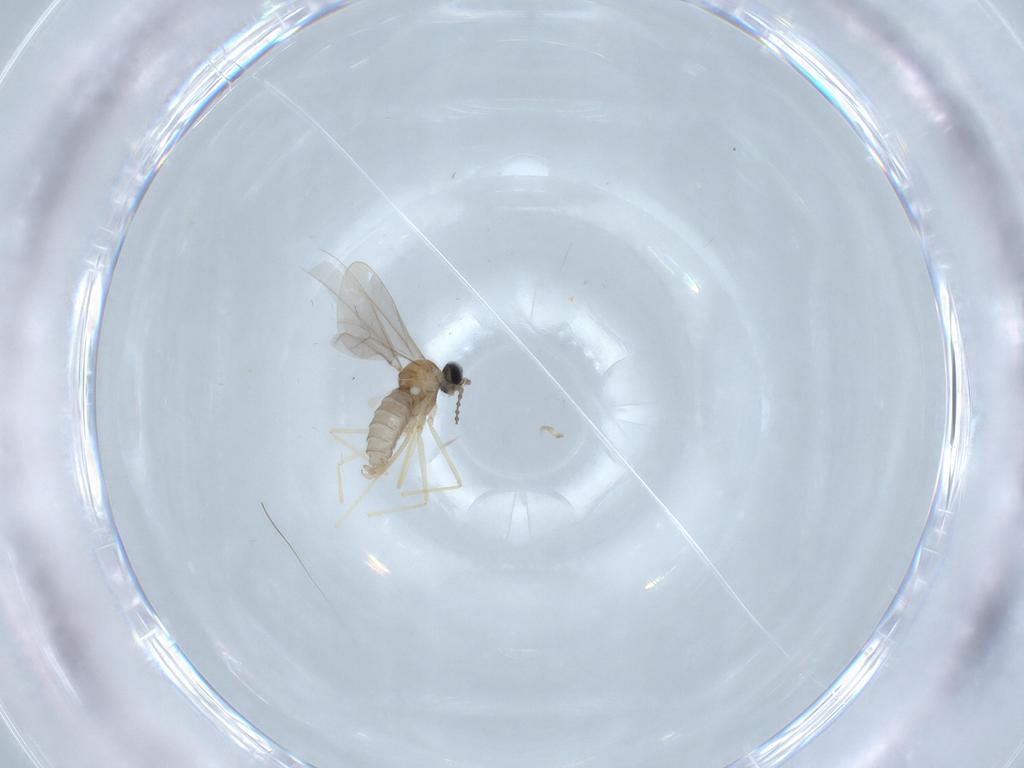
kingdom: Animalia
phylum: Arthropoda
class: Insecta
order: Diptera
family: Cecidomyiidae
